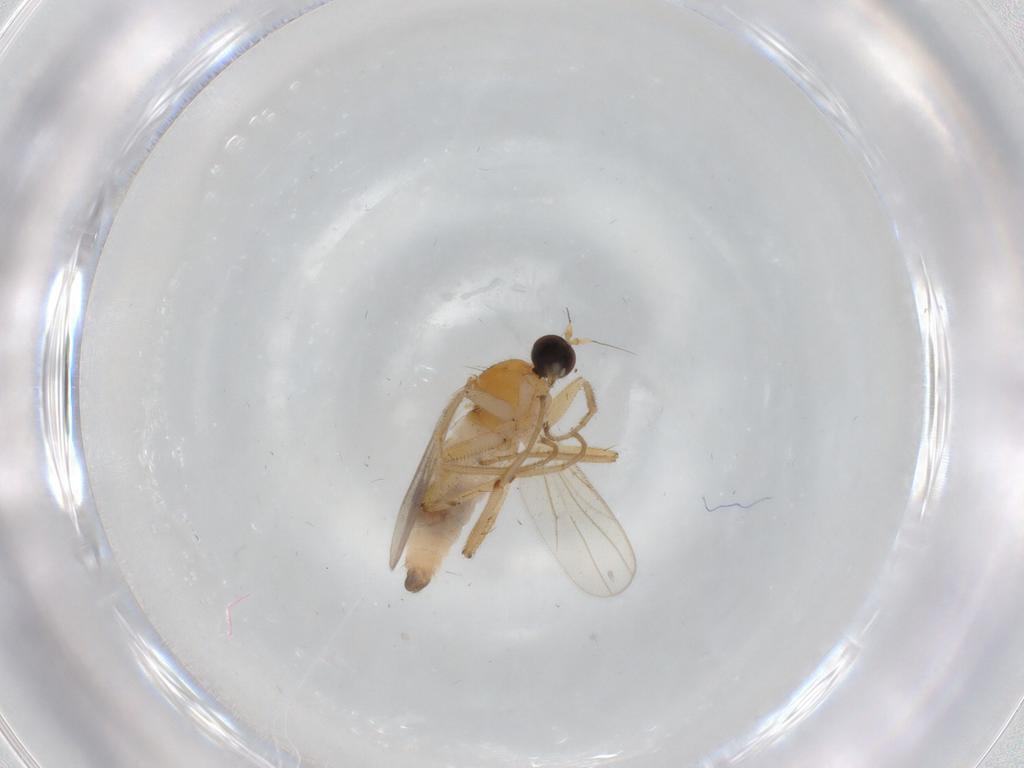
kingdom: Animalia
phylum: Arthropoda
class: Insecta
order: Diptera
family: Hybotidae
